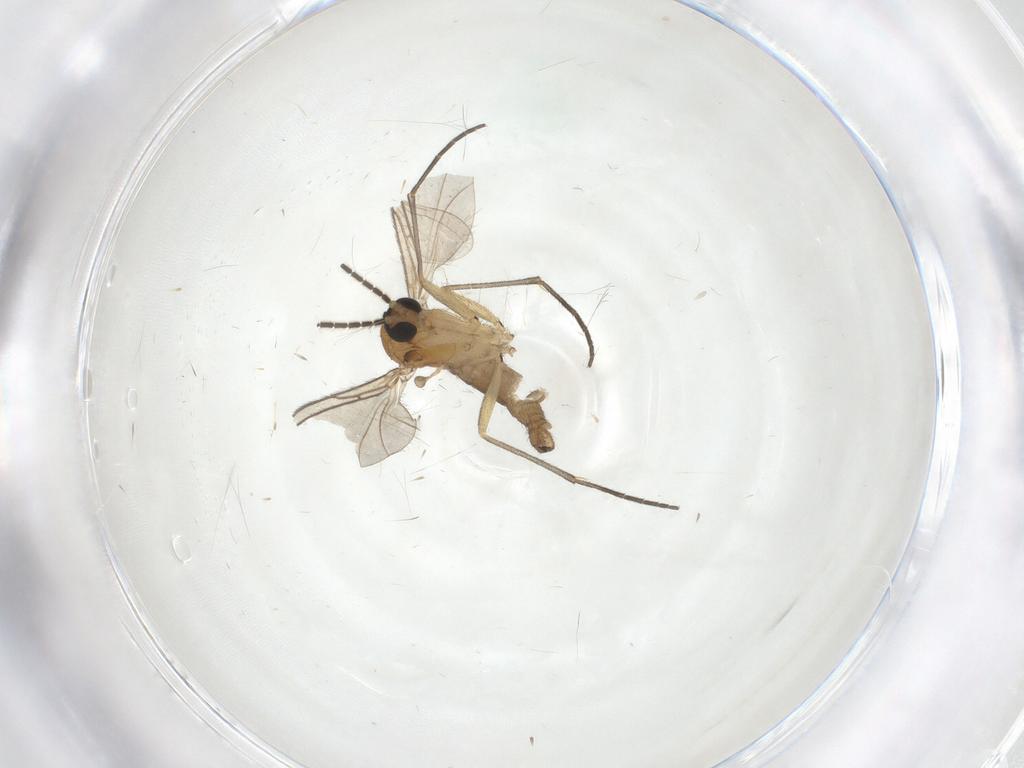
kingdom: Animalia
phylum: Arthropoda
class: Insecta
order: Diptera
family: Sciaridae
